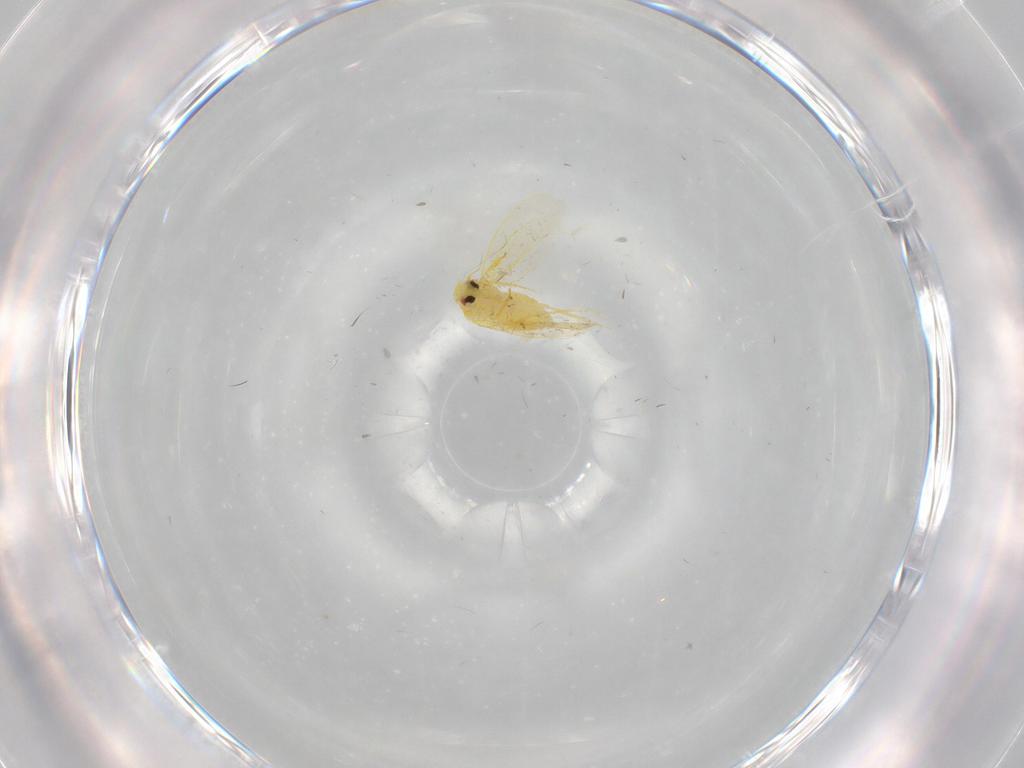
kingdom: Animalia
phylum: Arthropoda
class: Insecta
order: Hemiptera
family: Aleyrodidae
